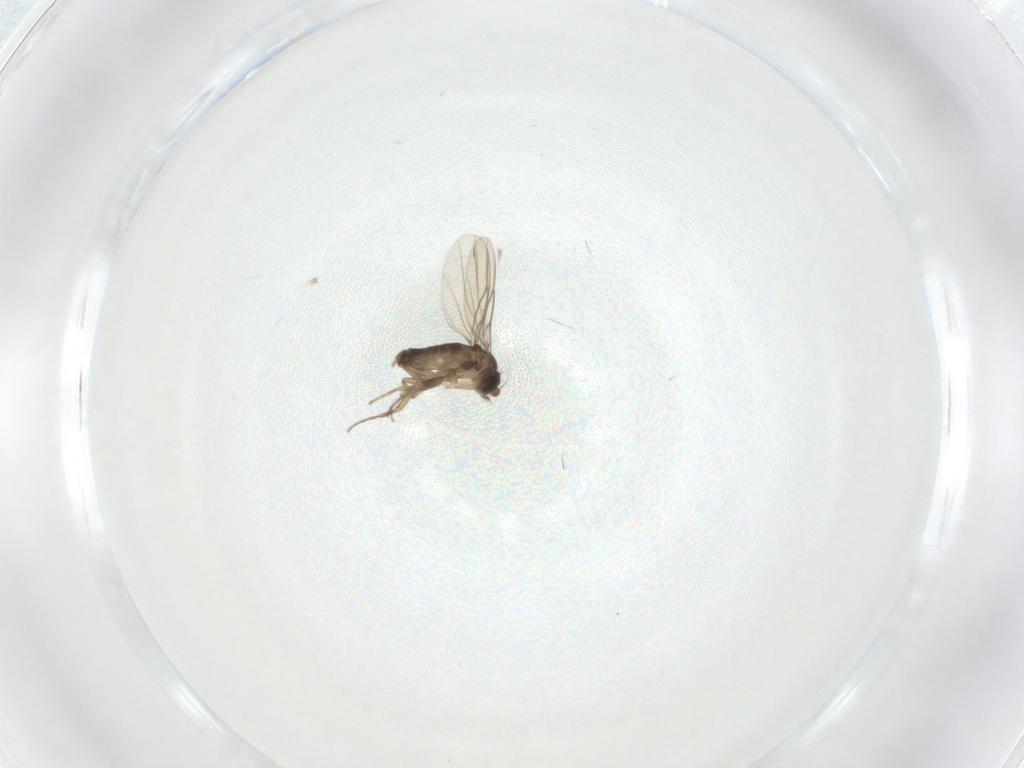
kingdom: Animalia
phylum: Arthropoda
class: Insecta
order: Diptera
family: Phoridae
